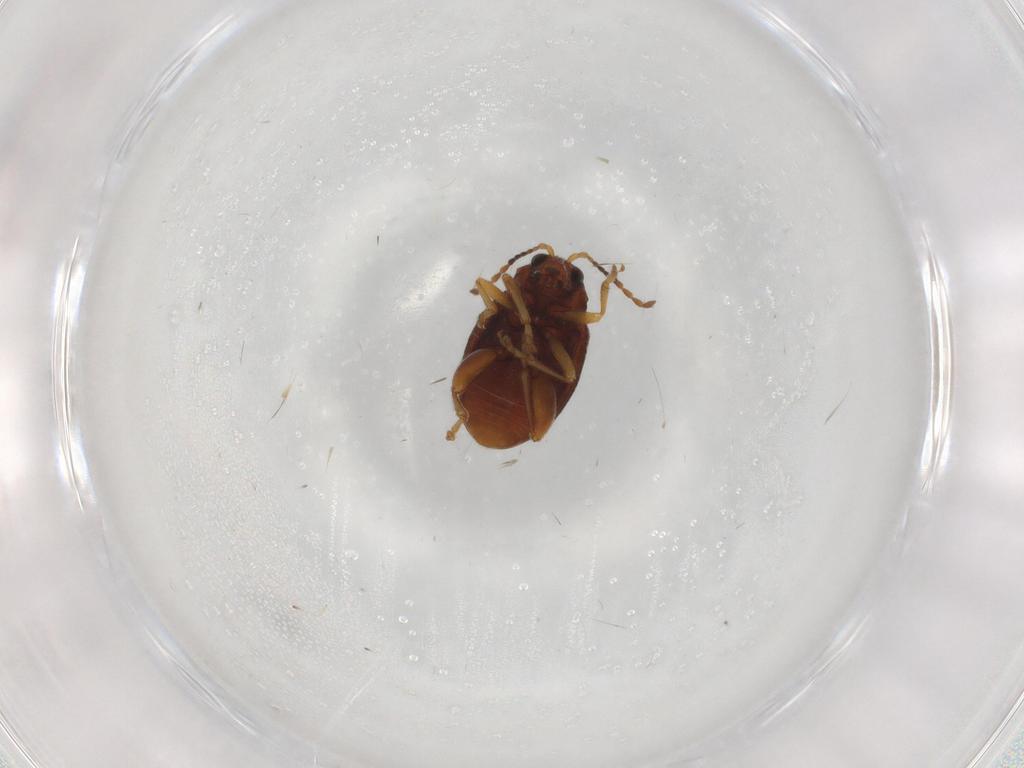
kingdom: Animalia
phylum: Arthropoda
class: Insecta
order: Coleoptera
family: Chrysomelidae
